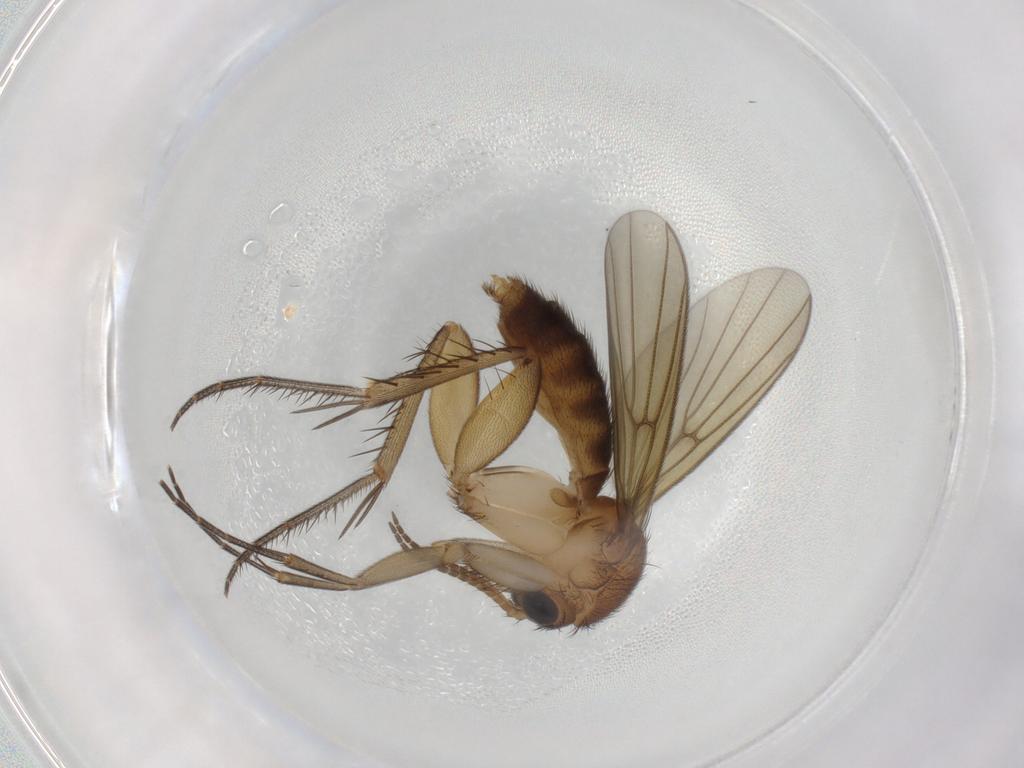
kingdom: Animalia
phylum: Arthropoda
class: Insecta
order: Diptera
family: Mycetophilidae
